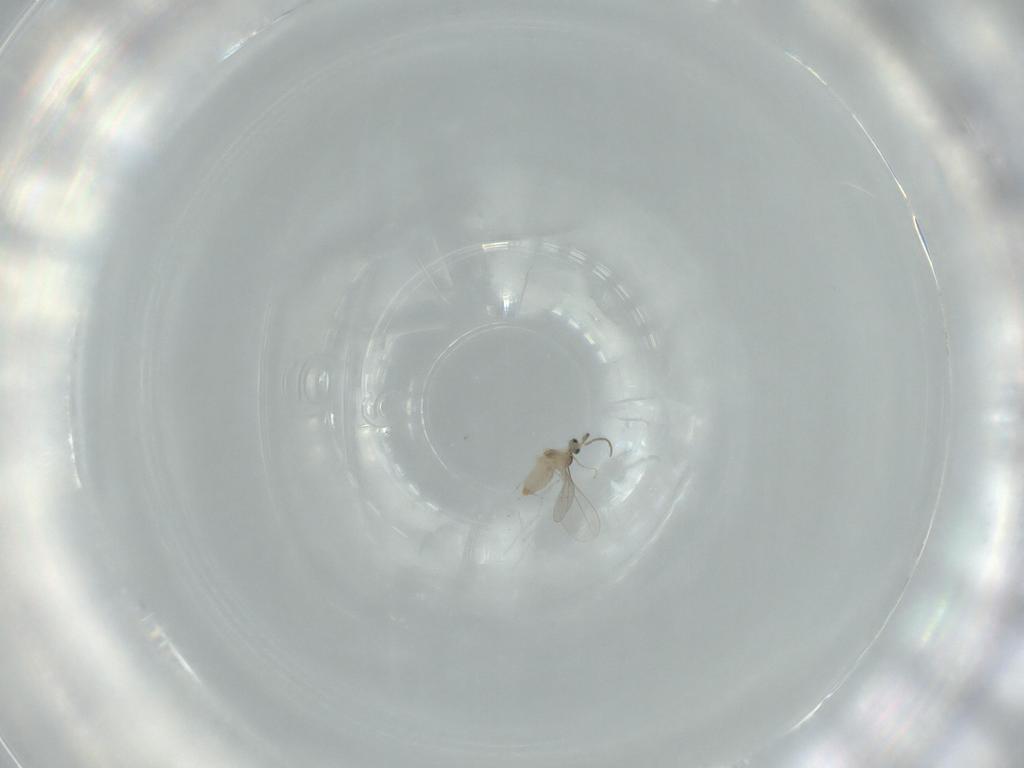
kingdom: Animalia
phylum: Arthropoda
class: Insecta
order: Diptera
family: Cecidomyiidae
